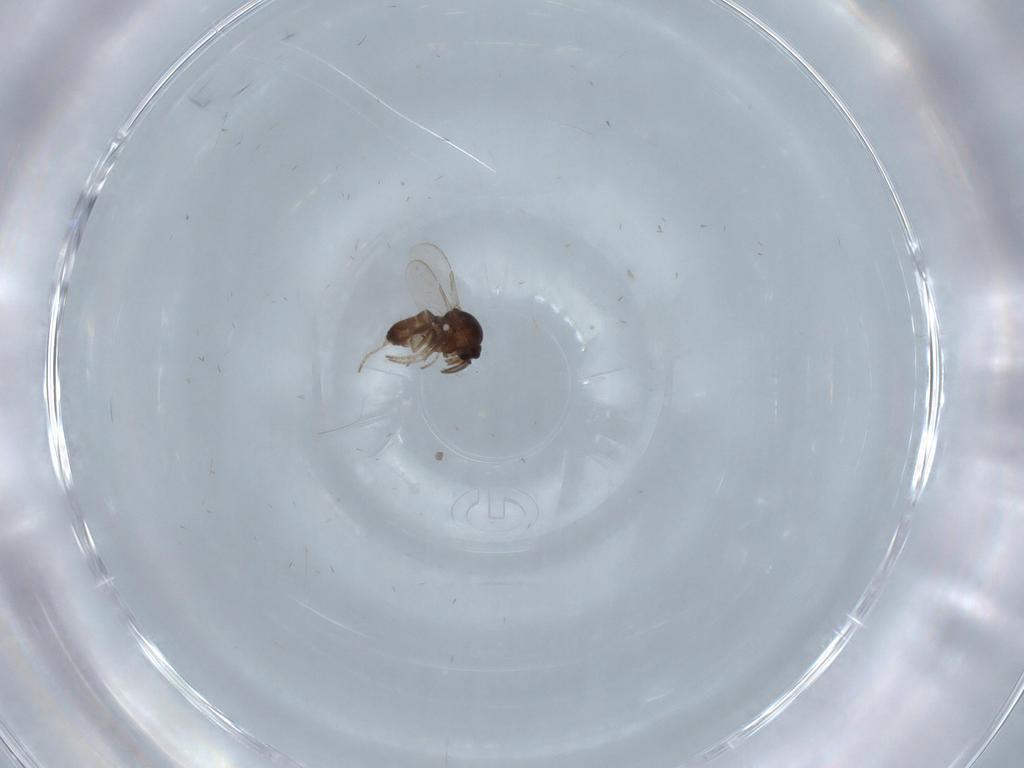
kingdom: Animalia
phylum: Arthropoda
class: Insecta
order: Diptera
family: Ceratopogonidae
